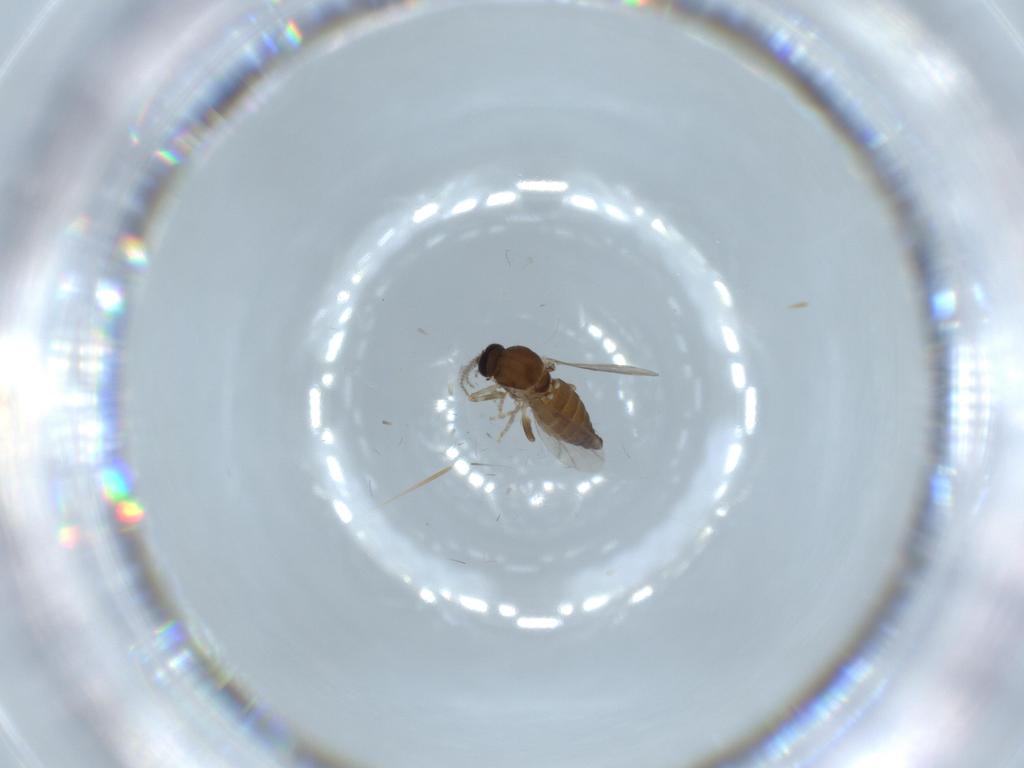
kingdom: Animalia
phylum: Arthropoda
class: Insecta
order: Diptera
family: Ceratopogonidae
